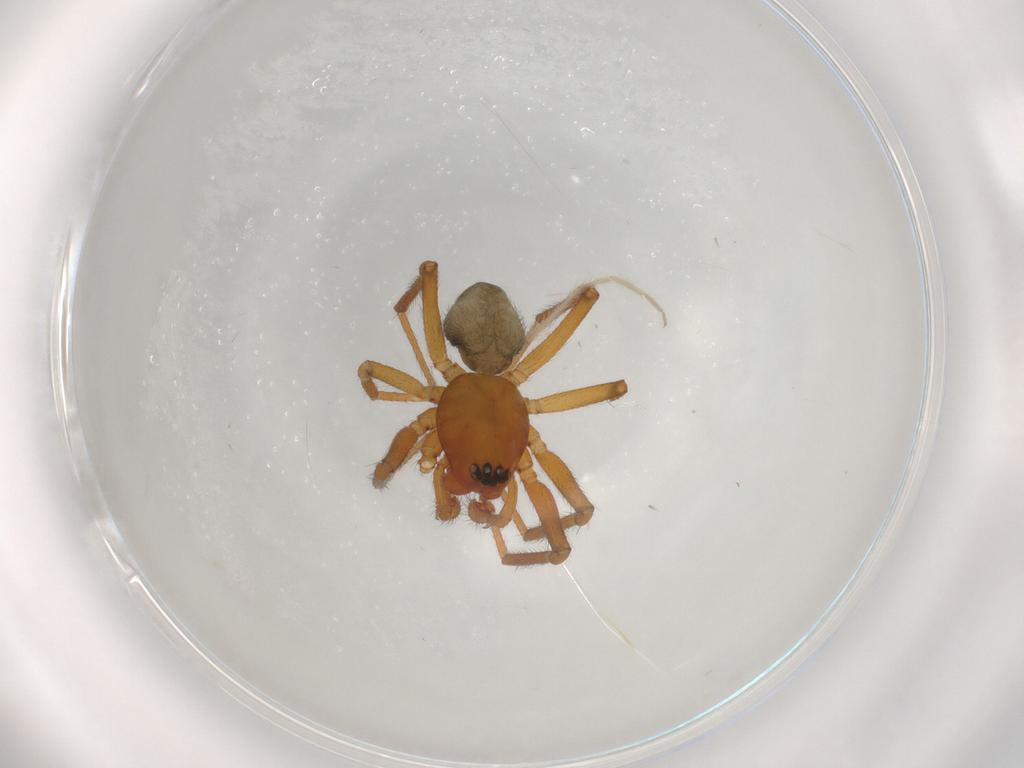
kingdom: Animalia
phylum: Arthropoda
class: Arachnida
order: Araneae
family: Linyphiidae
